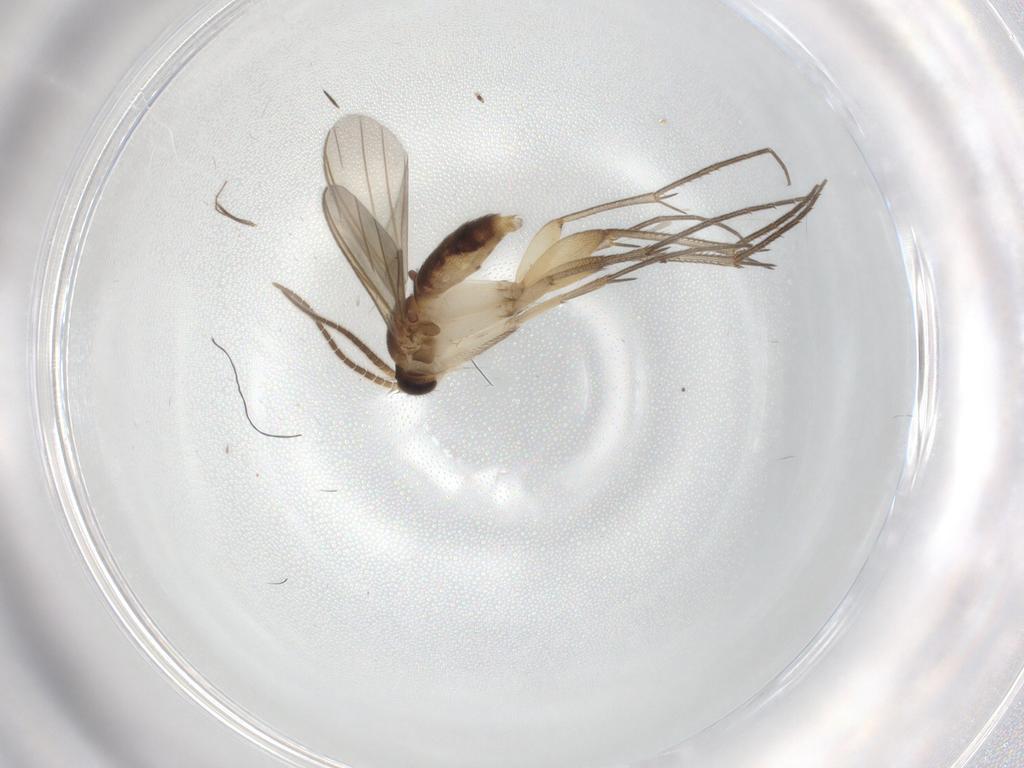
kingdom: Animalia
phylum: Arthropoda
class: Insecta
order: Diptera
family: Mycetophilidae
